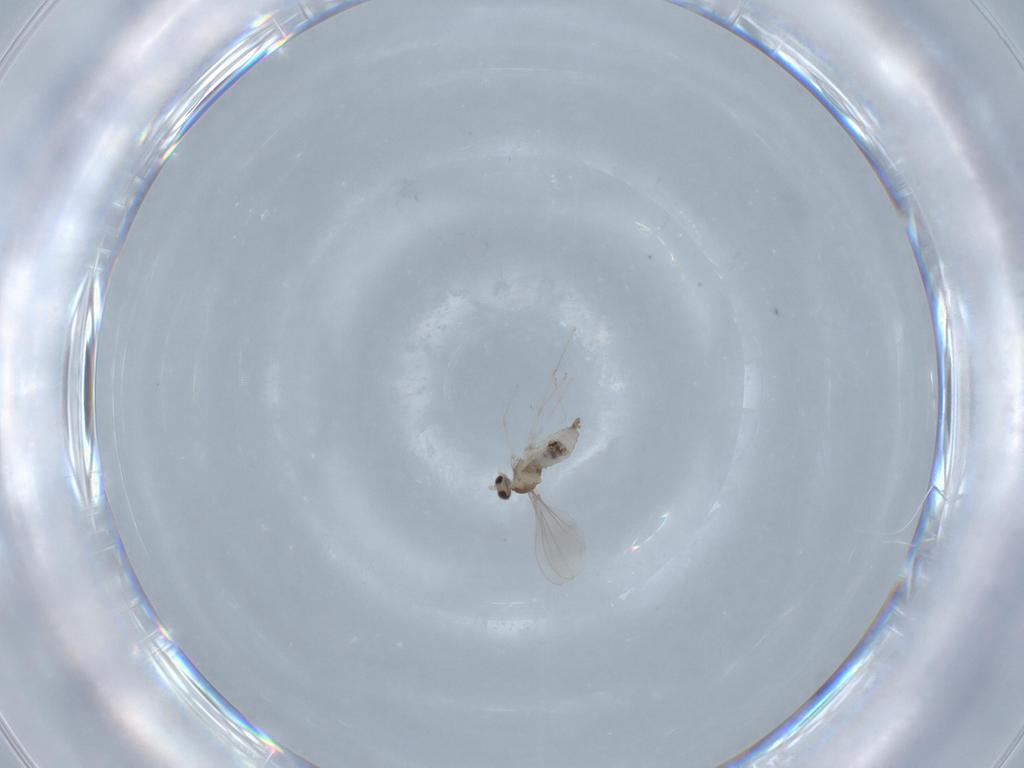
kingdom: Animalia
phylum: Arthropoda
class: Insecta
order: Diptera
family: Cecidomyiidae
